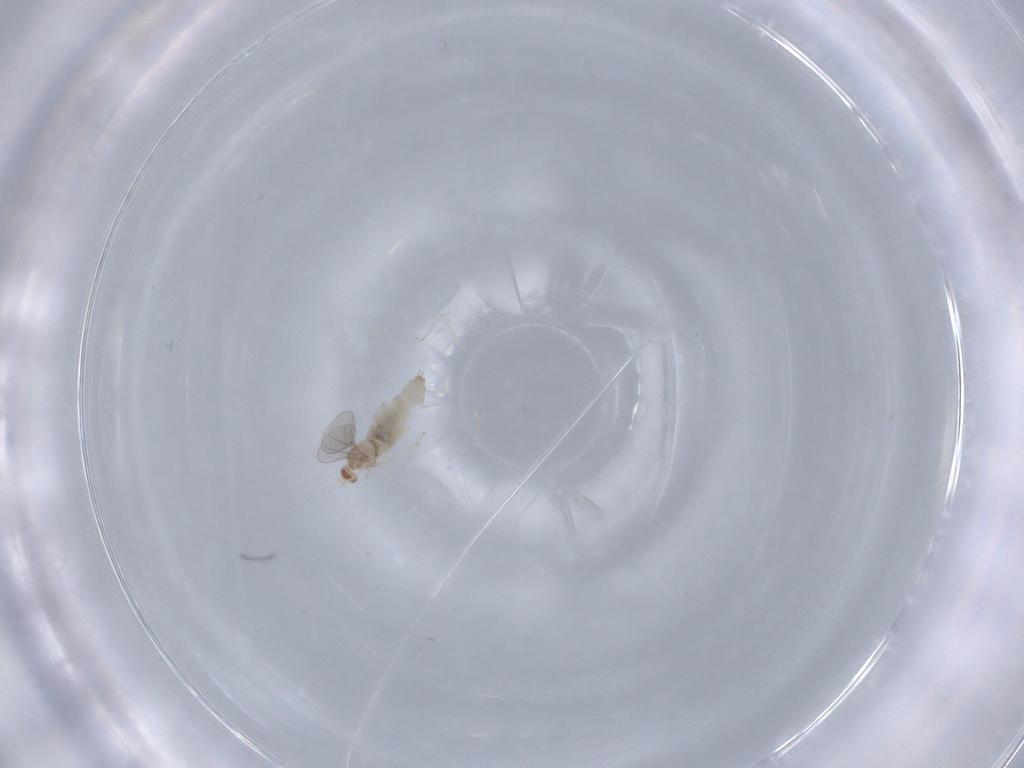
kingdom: Animalia
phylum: Arthropoda
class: Insecta
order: Diptera
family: Cecidomyiidae
